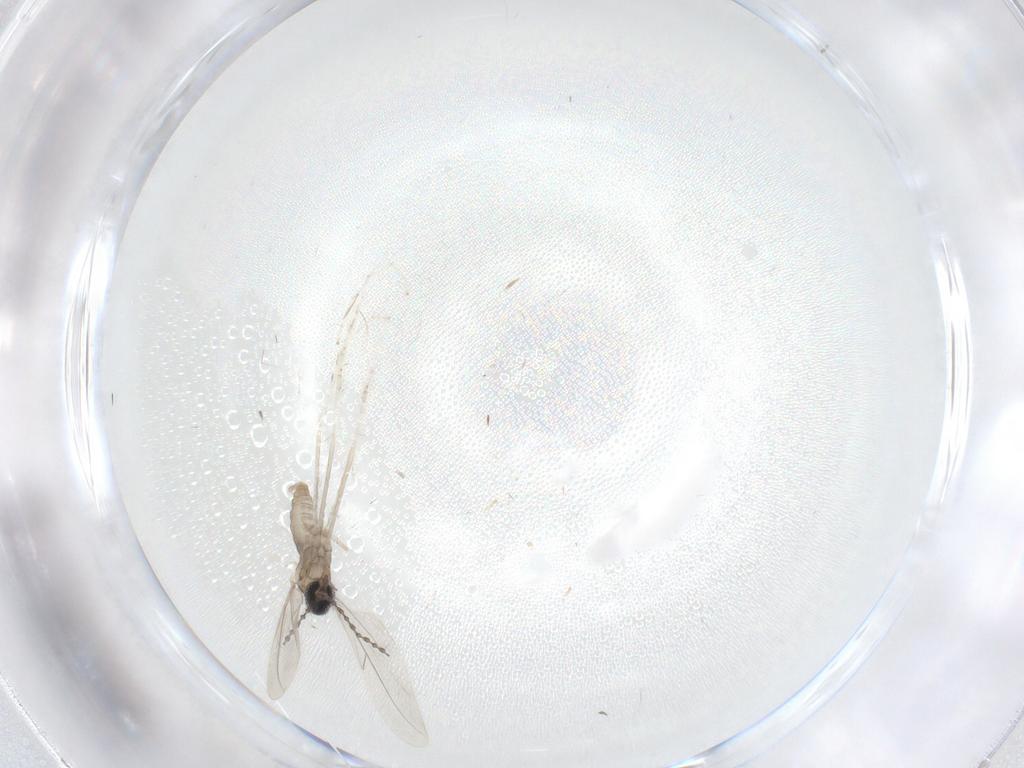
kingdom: Animalia
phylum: Arthropoda
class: Insecta
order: Diptera
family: Cecidomyiidae
